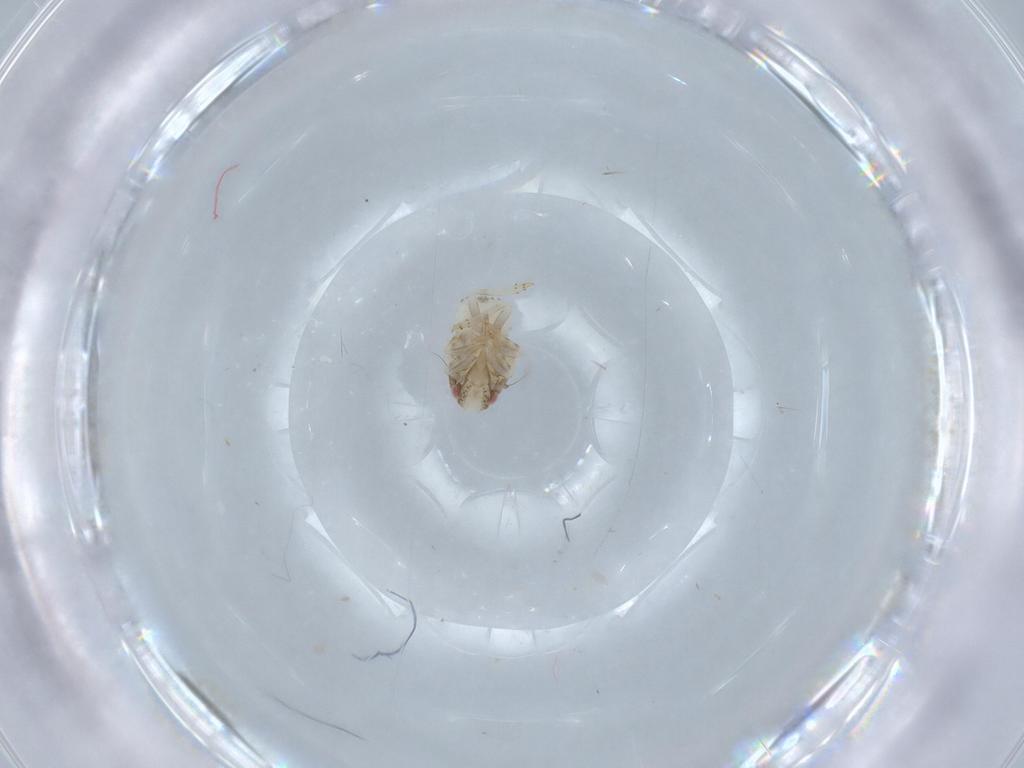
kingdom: Animalia
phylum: Arthropoda
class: Insecta
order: Hemiptera
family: Acanaloniidae
